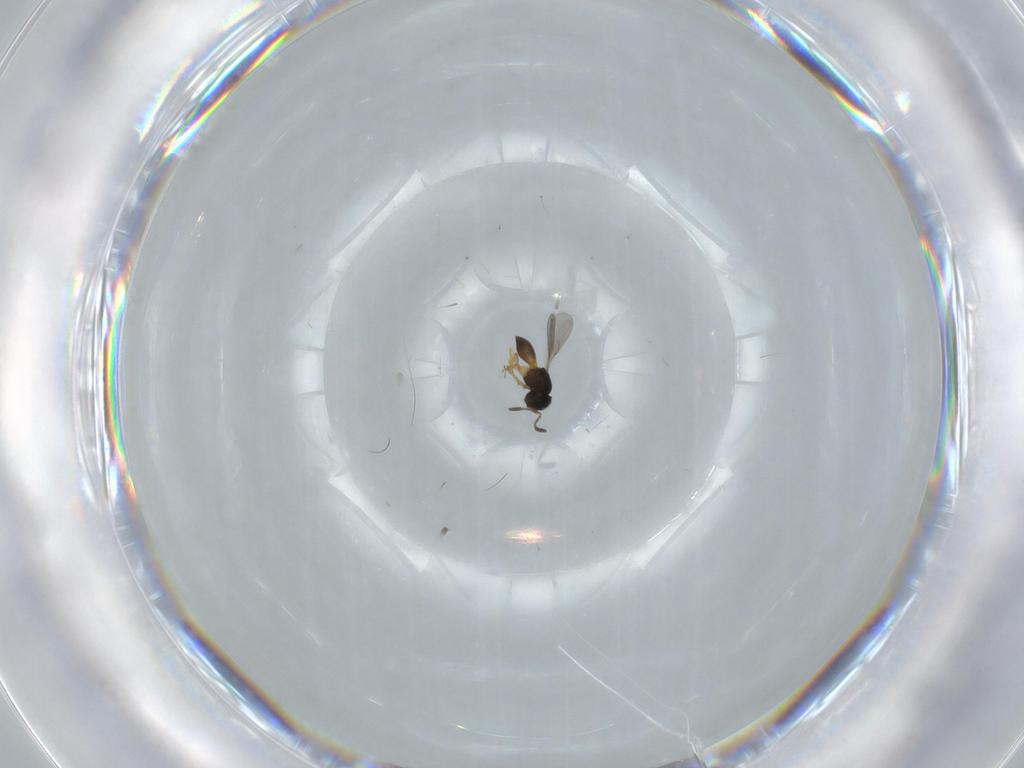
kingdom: Animalia
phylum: Arthropoda
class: Insecta
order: Hymenoptera
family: Scelionidae
